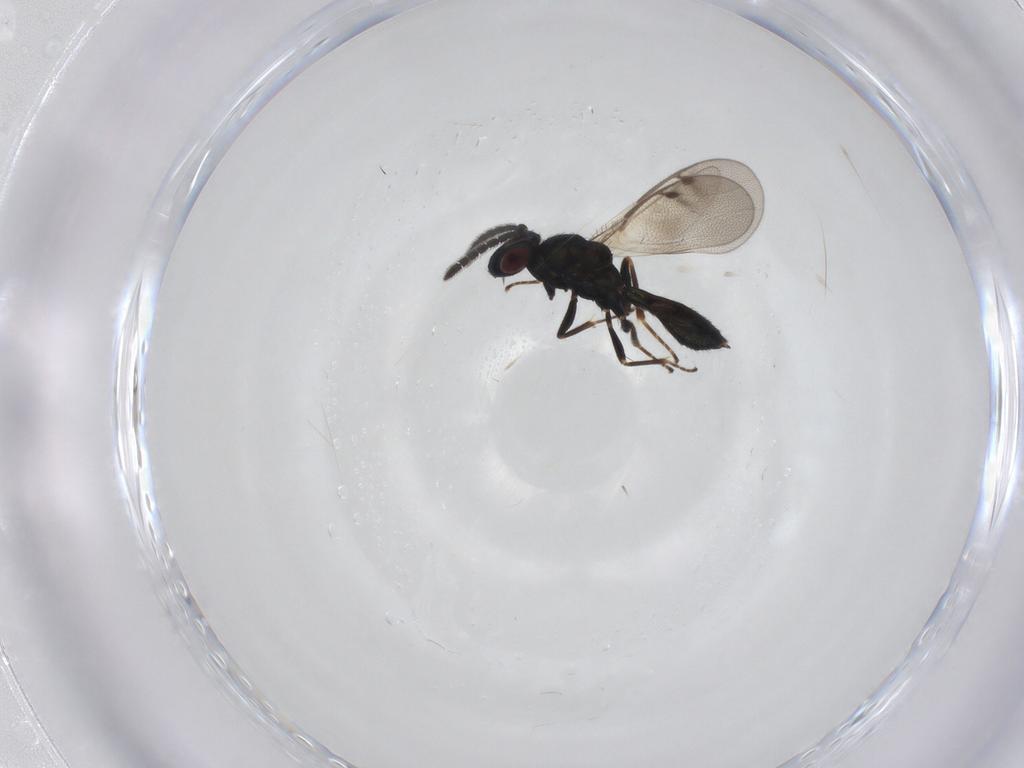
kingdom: Animalia
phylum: Arthropoda
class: Insecta
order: Hymenoptera
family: Pteromalidae
